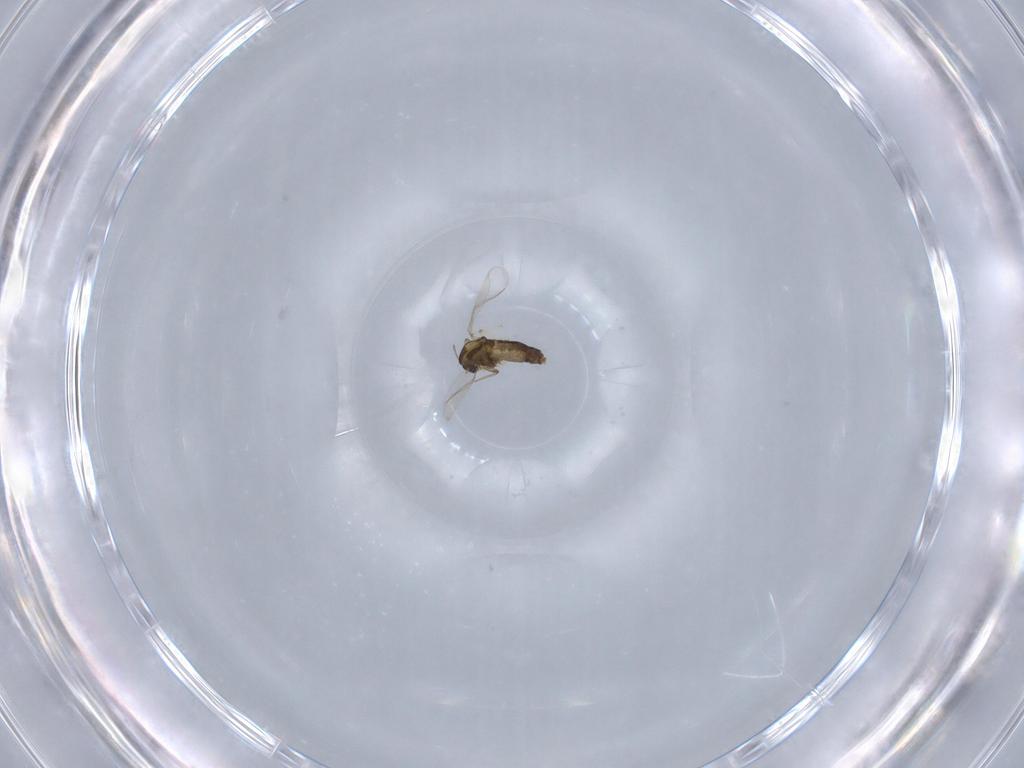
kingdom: Animalia
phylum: Arthropoda
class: Insecta
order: Diptera
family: Chironomidae
